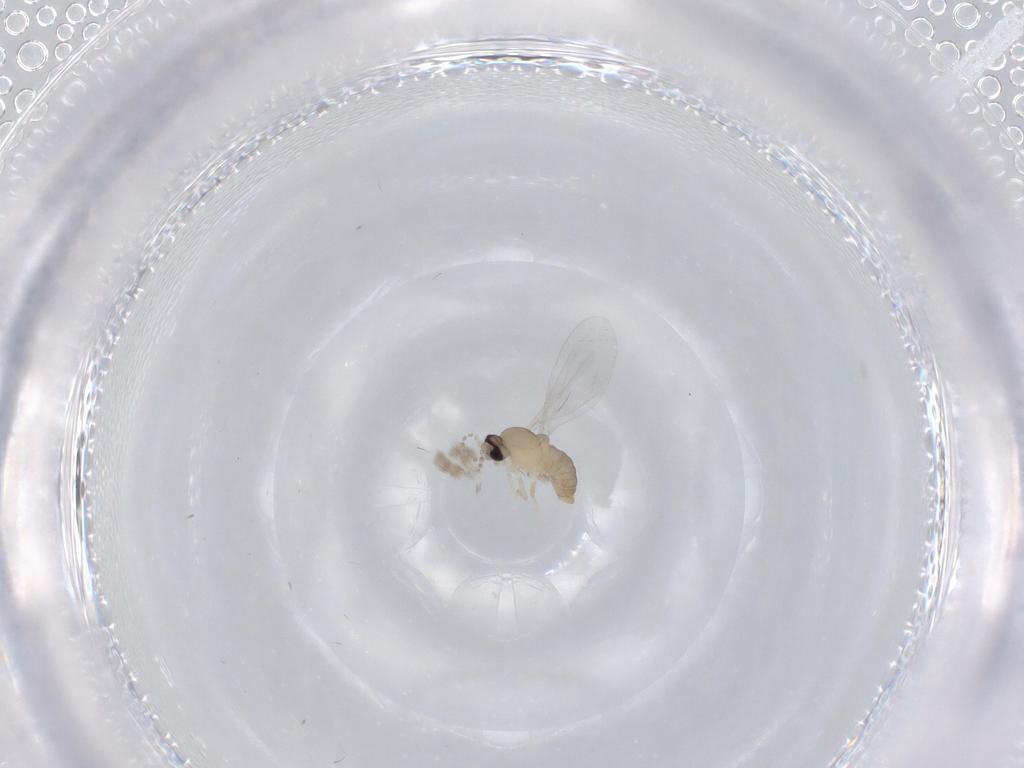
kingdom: Animalia
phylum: Arthropoda
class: Insecta
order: Diptera
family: Cecidomyiidae
